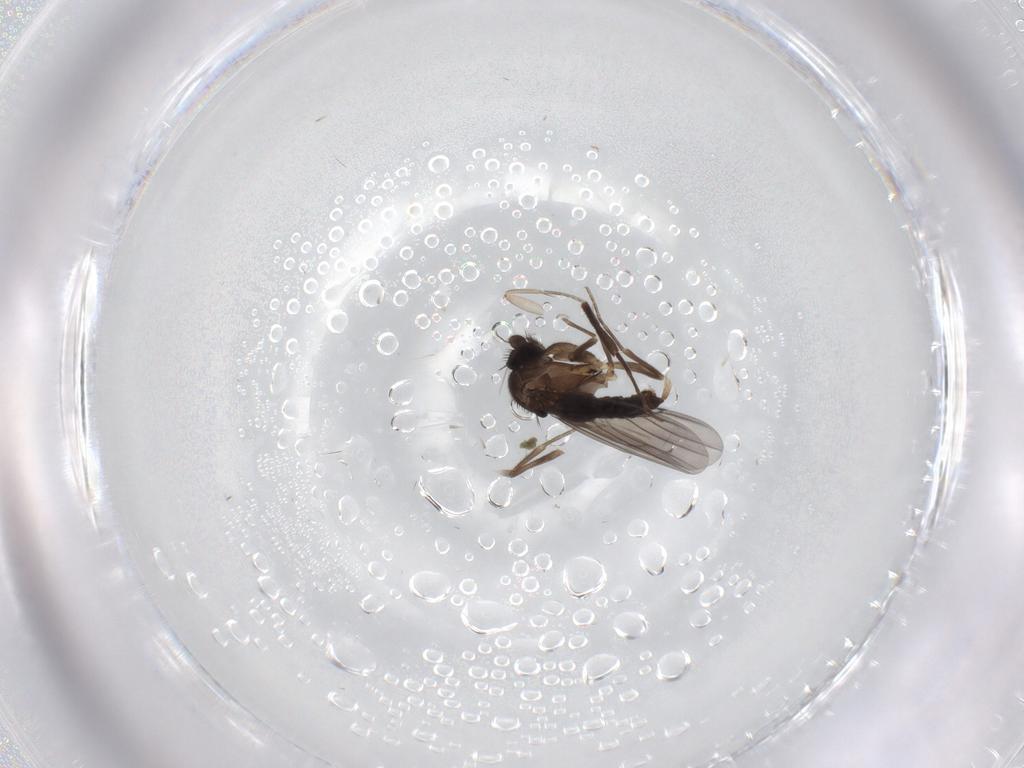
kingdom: Animalia
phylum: Arthropoda
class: Insecta
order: Diptera
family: Phoridae
